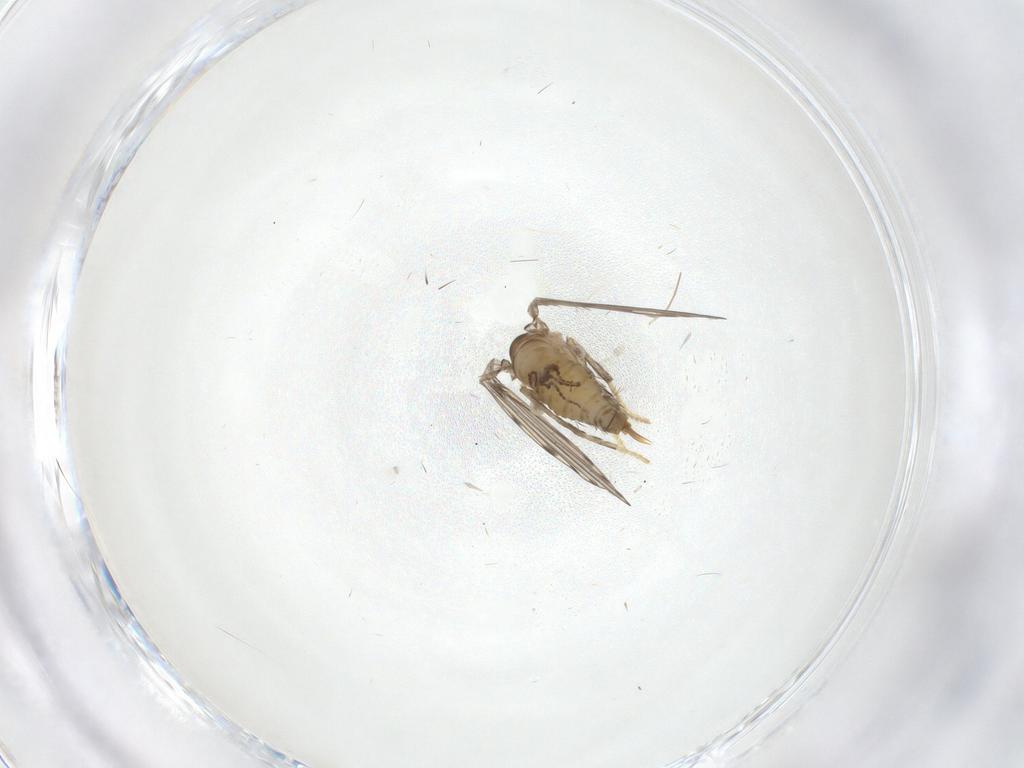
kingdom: Animalia
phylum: Arthropoda
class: Insecta
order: Diptera
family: Chironomidae
